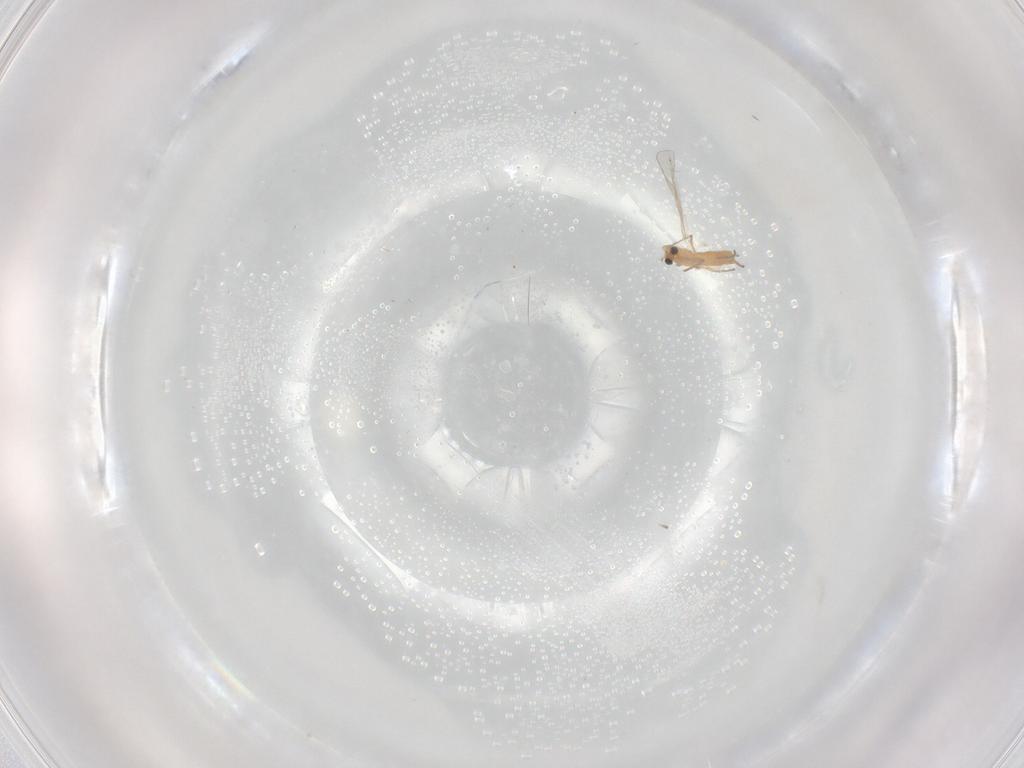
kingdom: Animalia
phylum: Arthropoda
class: Insecta
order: Diptera
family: Chironomidae
